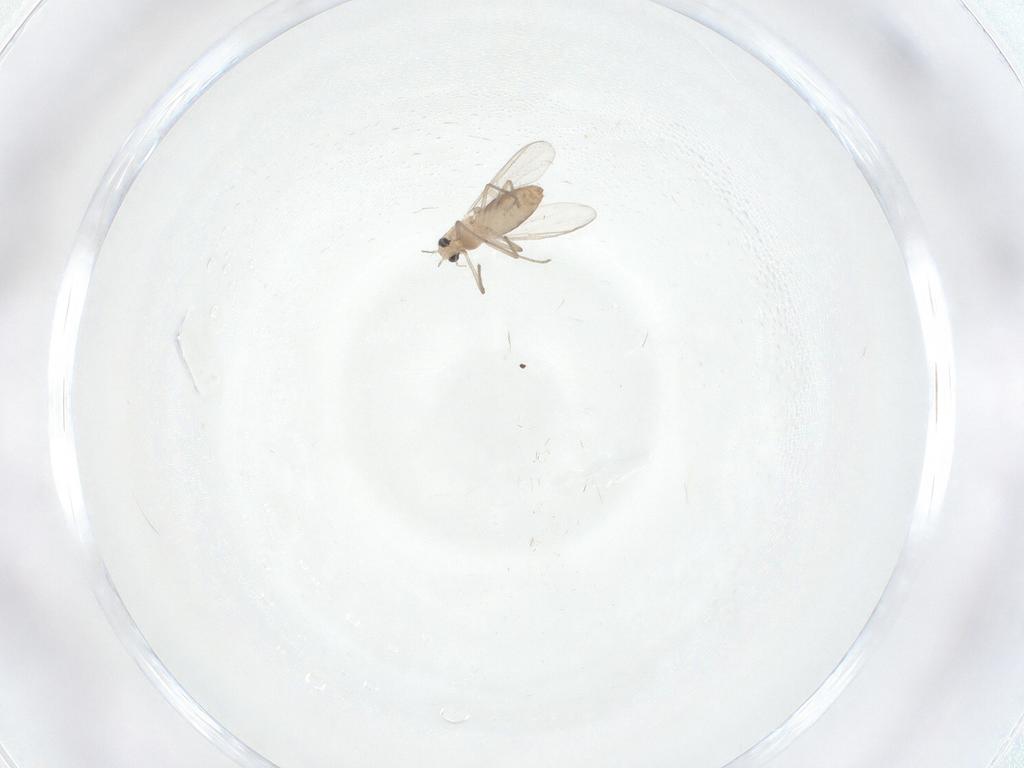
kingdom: Animalia
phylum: Arthropoda
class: Insecta
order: Diptera
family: Chironomidae
